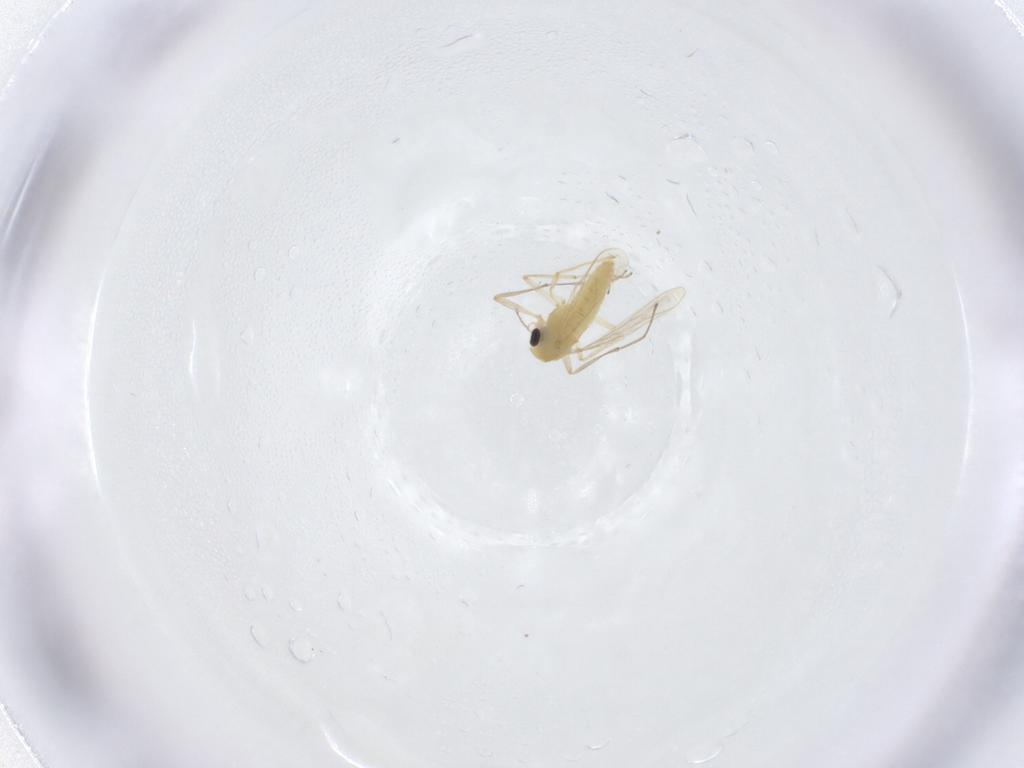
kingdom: Animalia
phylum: Arthropoda
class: Insecta
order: Diptera
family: Chironomidae
